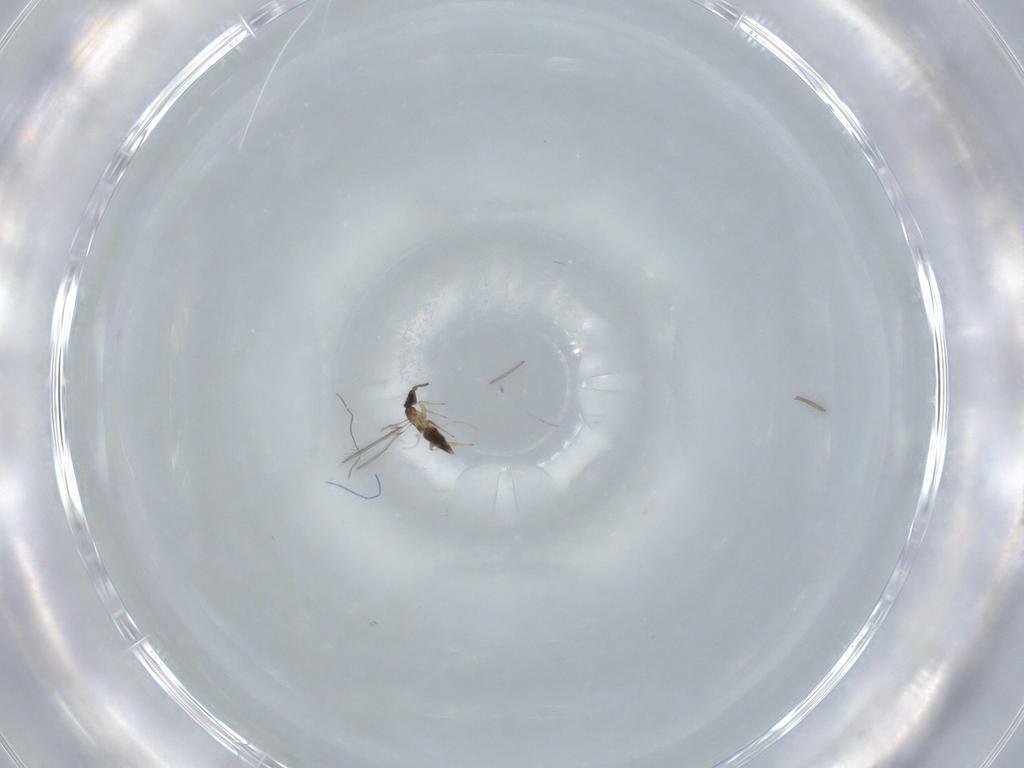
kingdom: Animalia
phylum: Arthropoda
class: Insecta
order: Hymenoptera
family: Mymaridae
